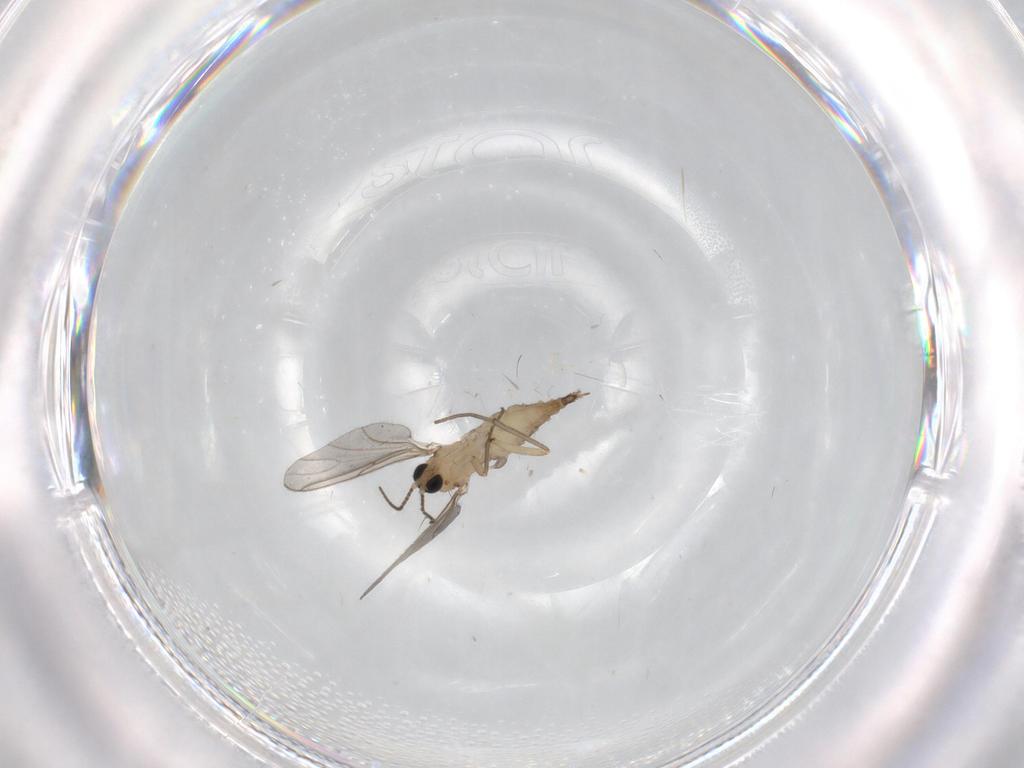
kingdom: Animalia
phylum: Arthropoda
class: Insecta
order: Diptera
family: Sciaridae
